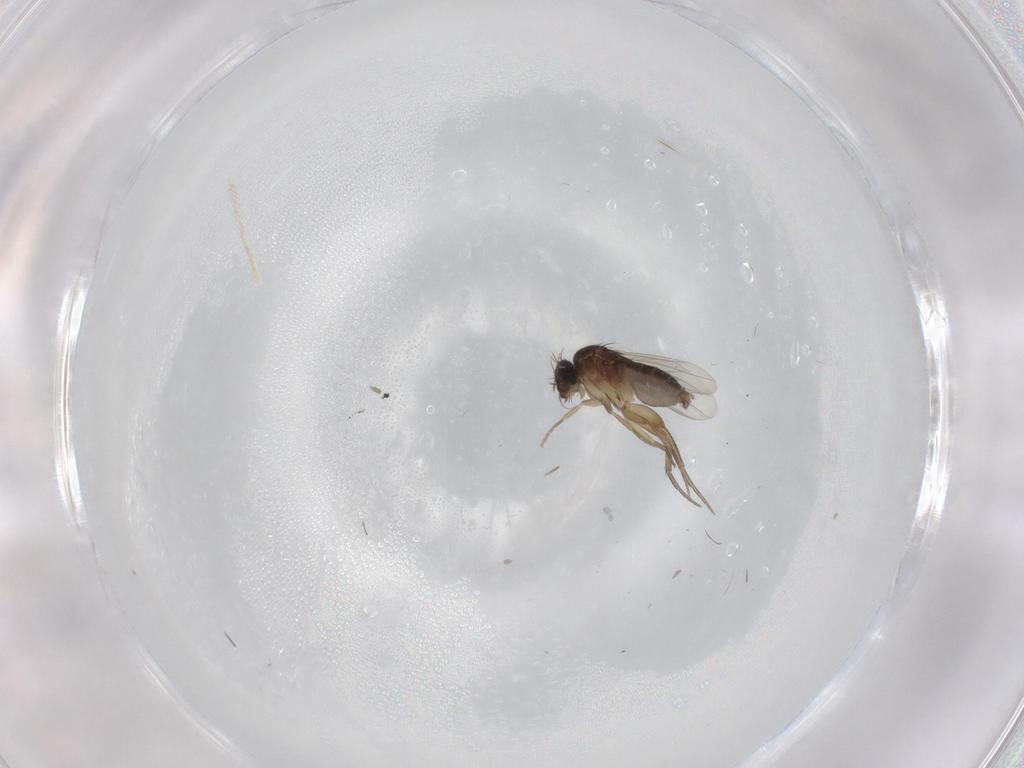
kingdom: Animalia
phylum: Arthropoda
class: Insecta
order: Diptera
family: Phoridae
